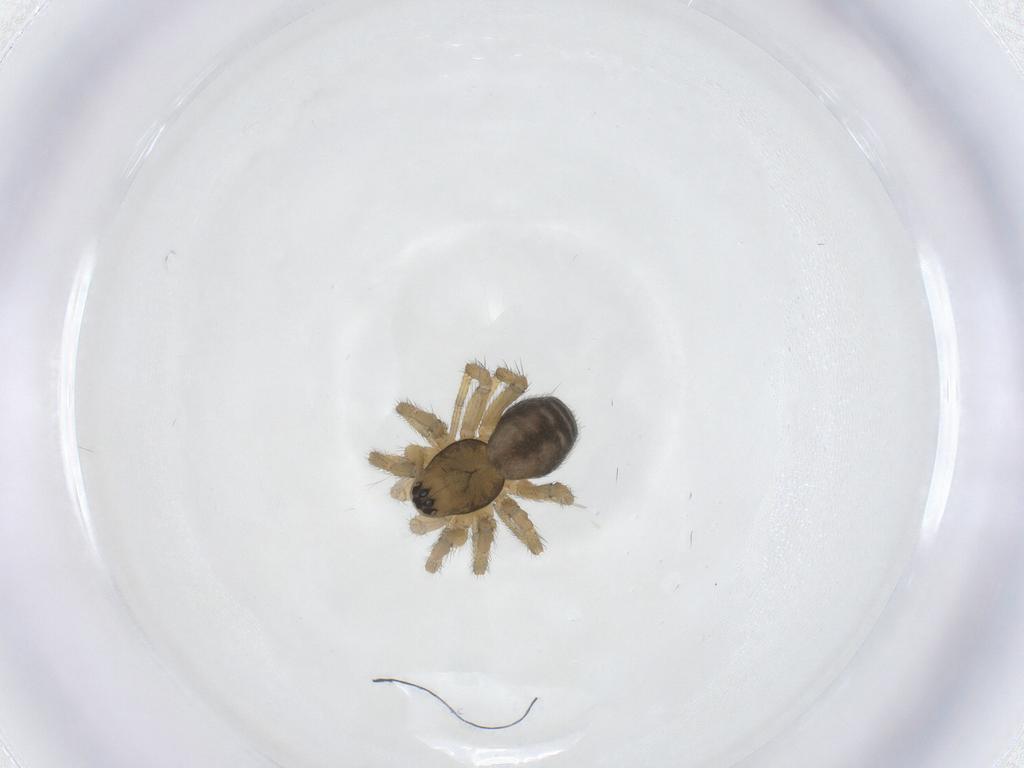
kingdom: Animalia
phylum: Arthropoda
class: Arachnida
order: Araneae
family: Linyphiidae
